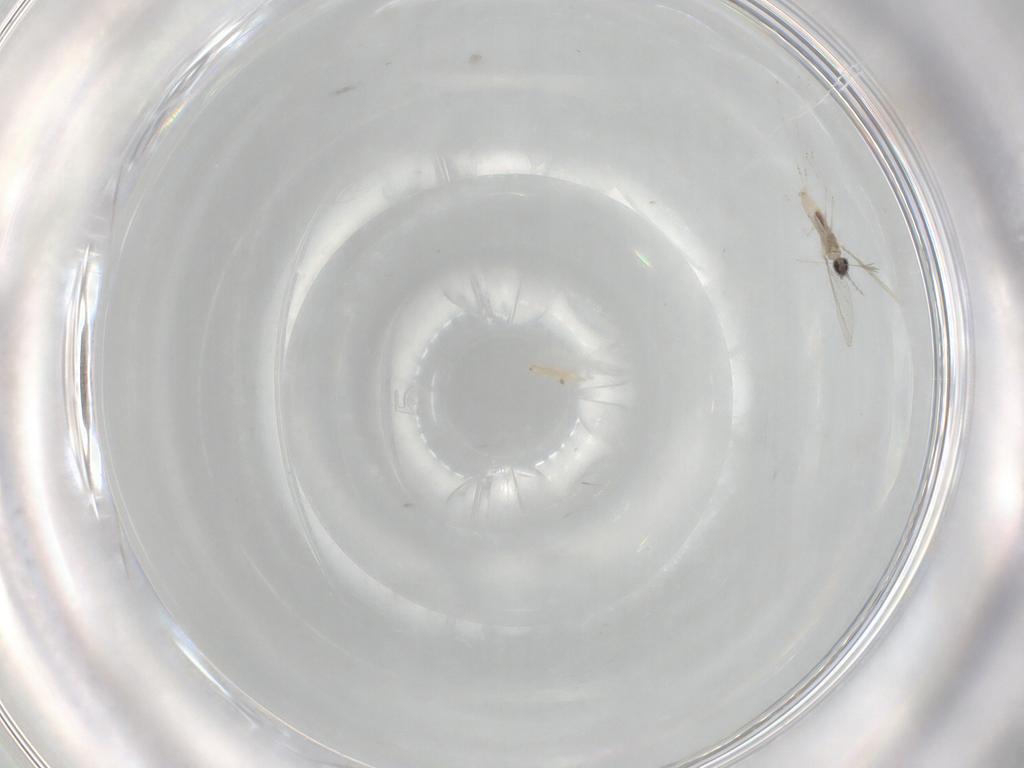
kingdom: Animalia
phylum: Arthropoda
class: Insecta
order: Diptera
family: Cecidomyiidae
